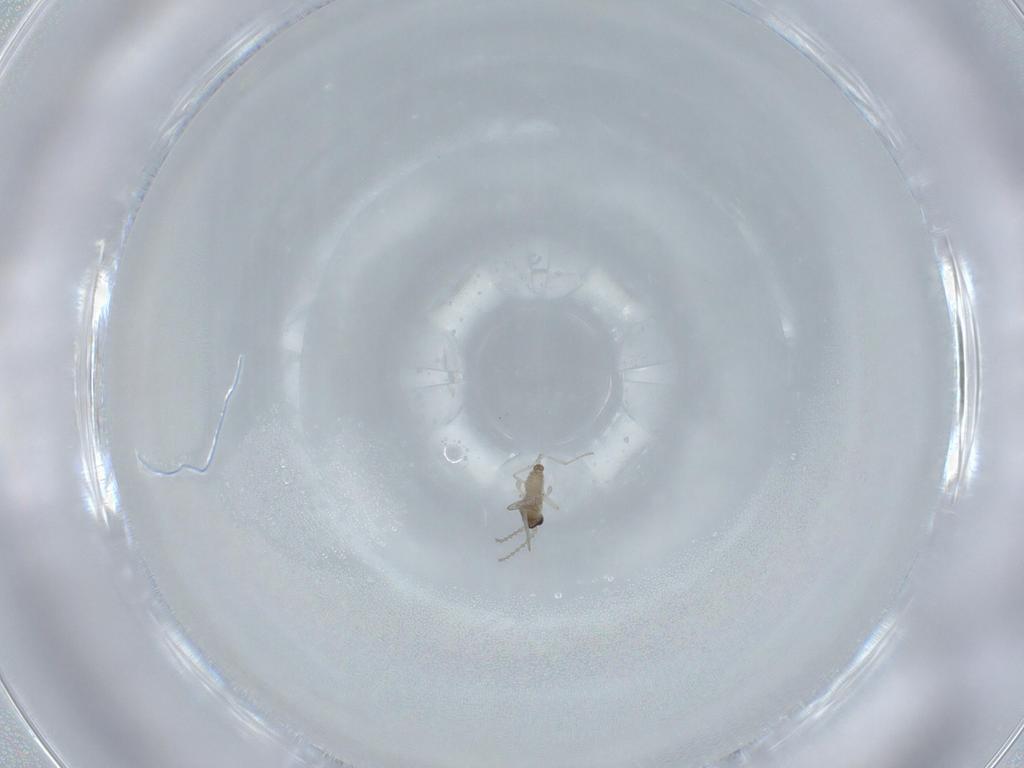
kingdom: Animalia
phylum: Arthropoda
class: Insecta
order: Diptera
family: Cecidomyiidae
